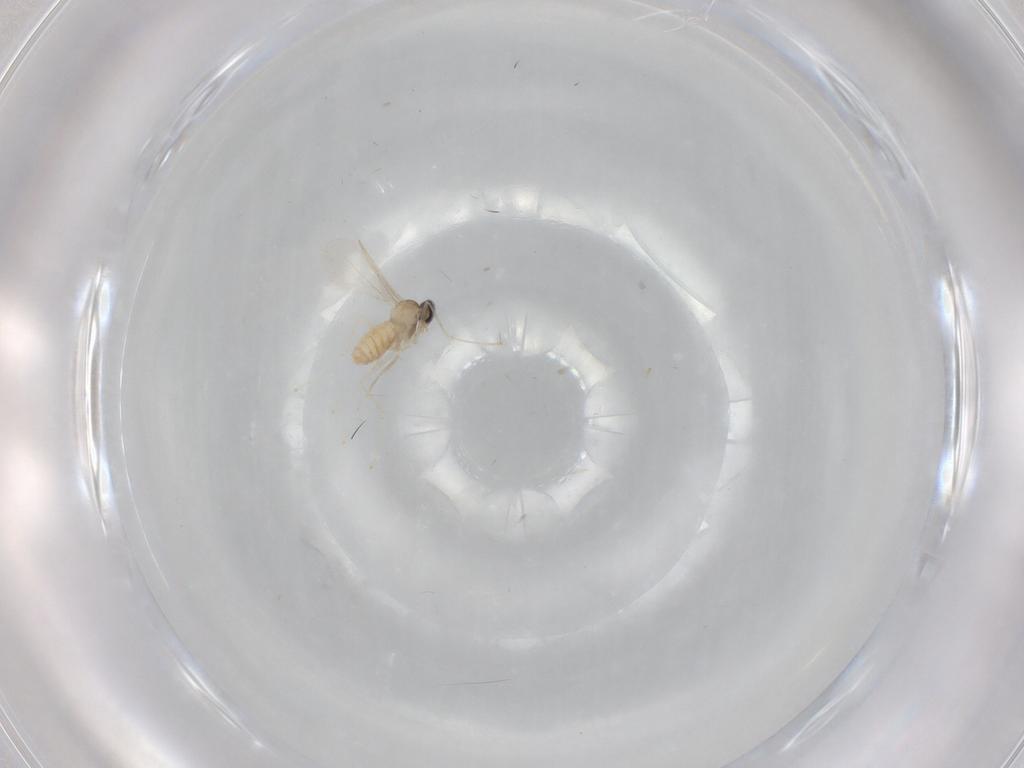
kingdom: Animalia
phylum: Arthropoda
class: Insecta
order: Diptera
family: Cecidomyiidae
